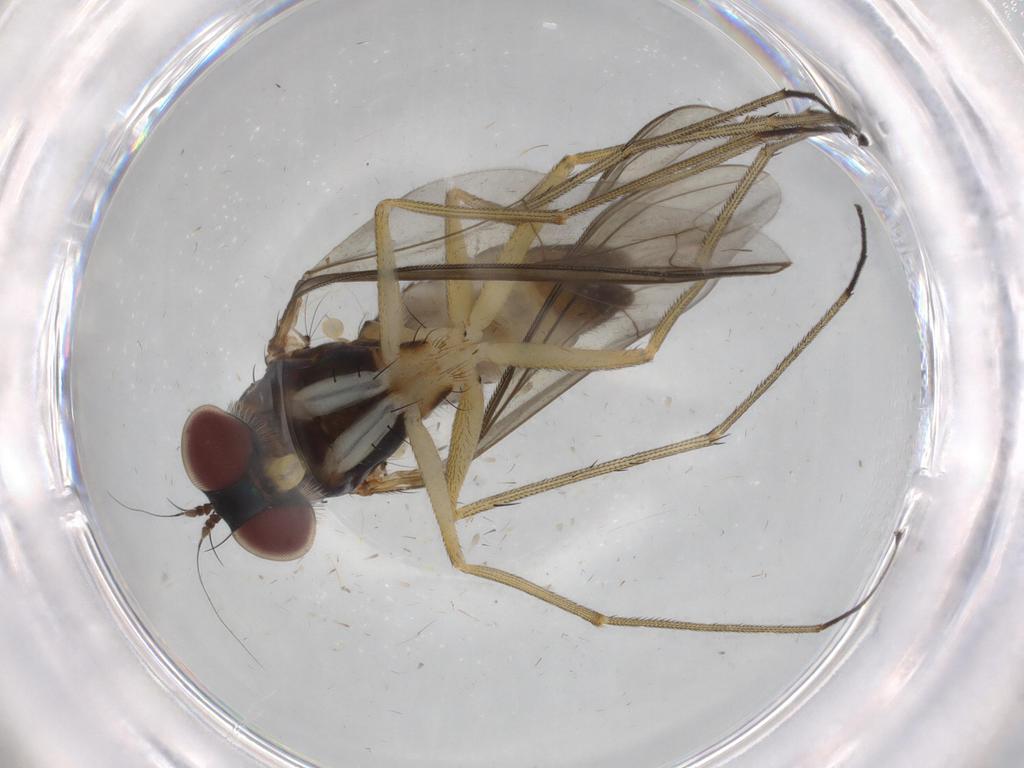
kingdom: Animalia
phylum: Arthropoda
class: Insecta
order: Diptera
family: Dolichopodidae
